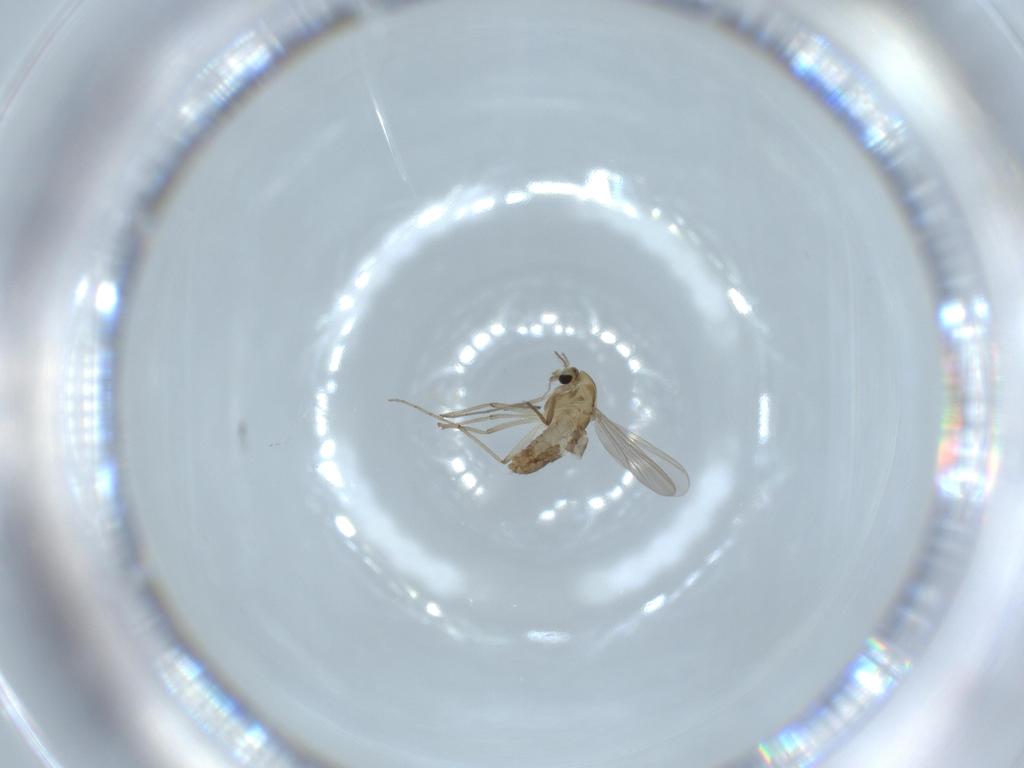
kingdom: Animalia
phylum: Arthropoda
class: Insecta
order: Diptera
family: Chironomidae
